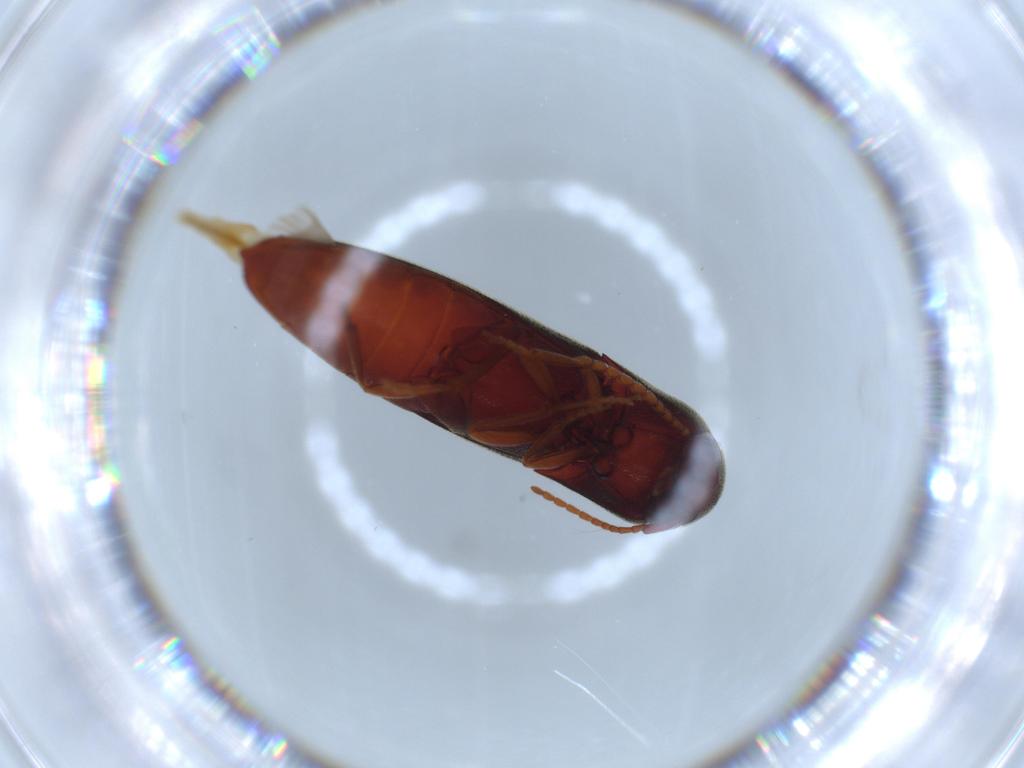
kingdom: Animalia
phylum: Arthropoda
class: Insecta
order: Coleoptera
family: Eucnemidae
